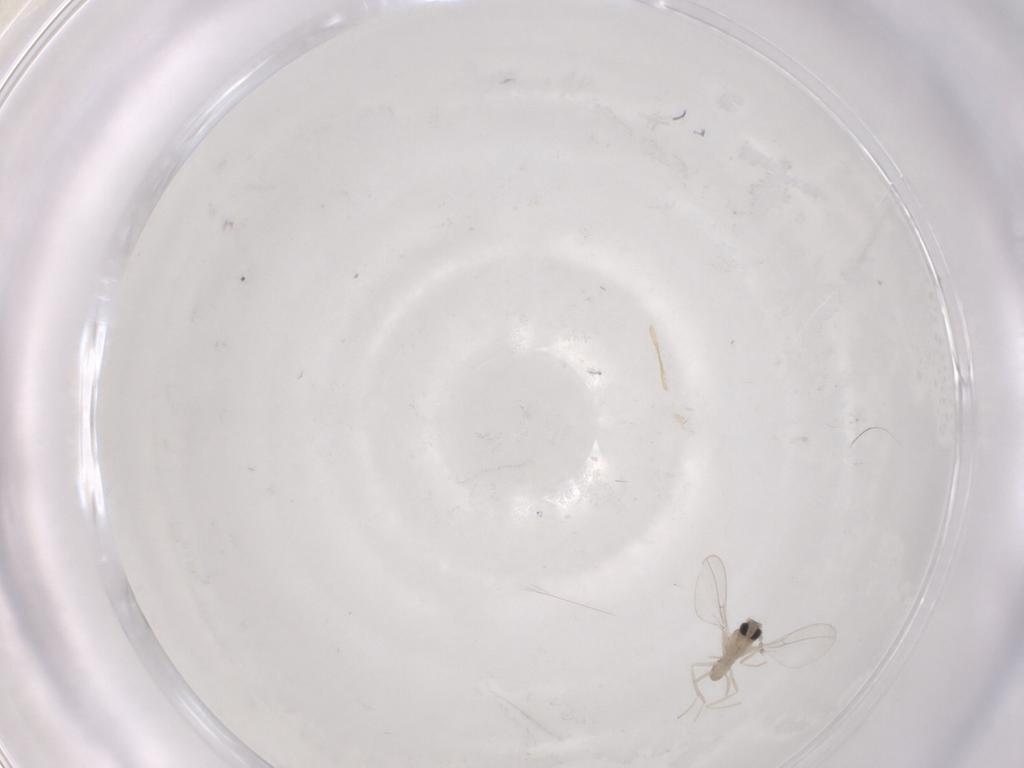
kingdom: Animalia
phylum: Arthropoda
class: Insecta
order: Diptera
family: Cecidomyiidae
